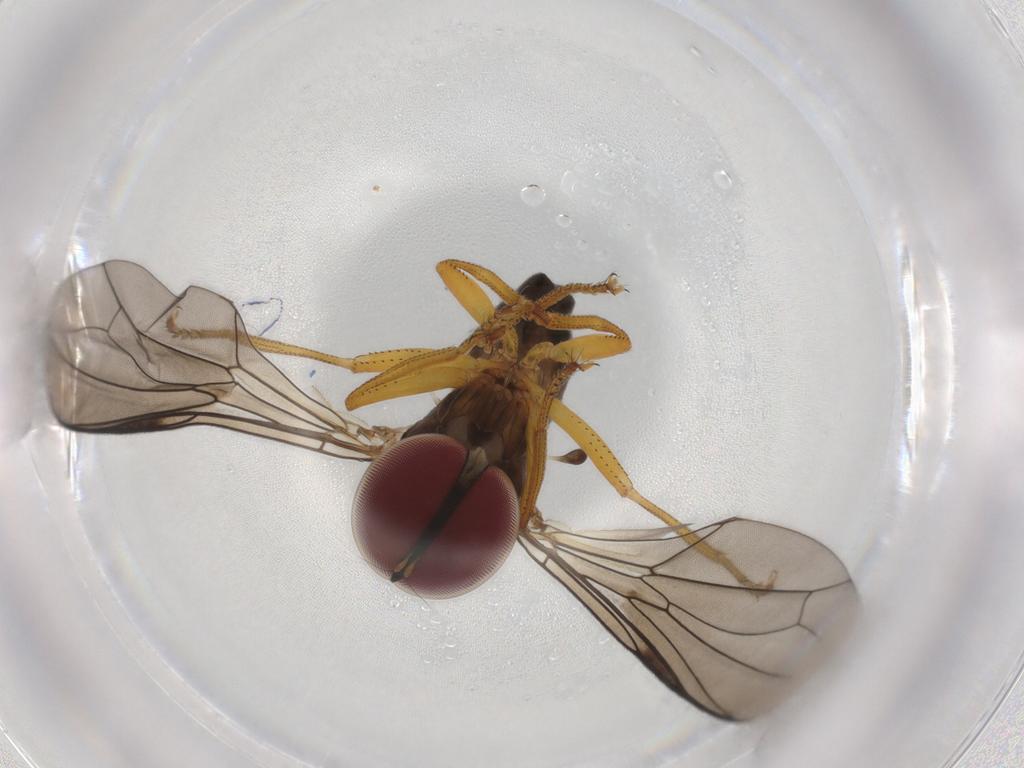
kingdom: Animalia
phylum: Arthropoda
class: Insecta
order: Diptera
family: Pipunculidae
